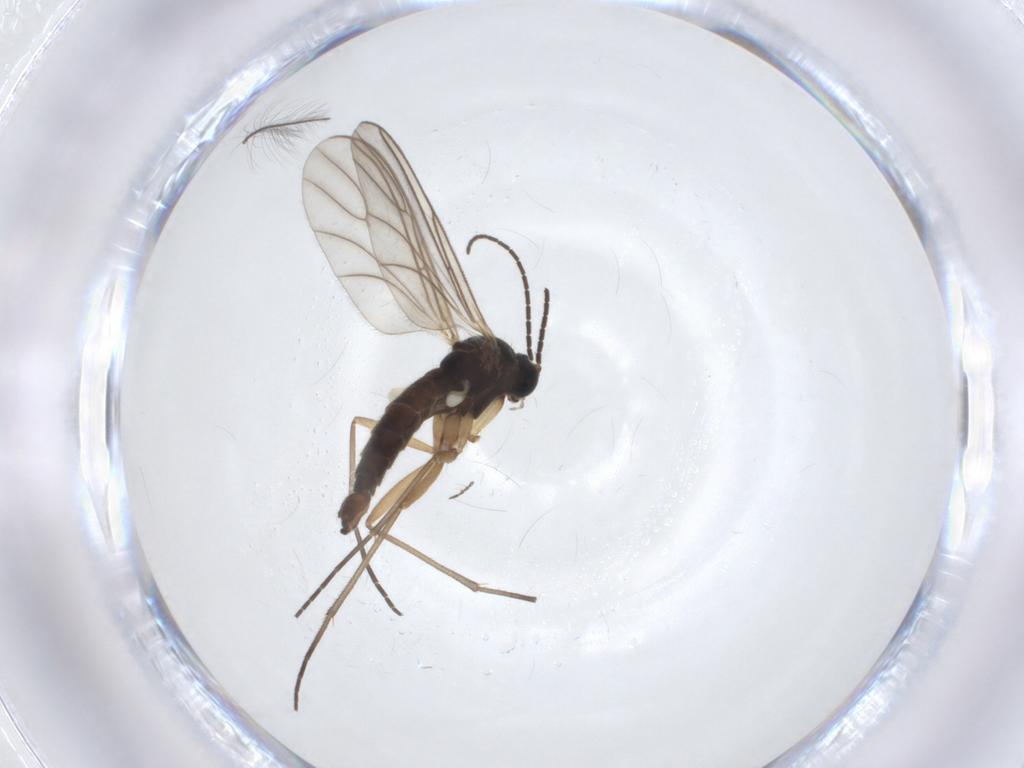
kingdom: Animalia
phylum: Arthropoda
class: Insecta
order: Diptera
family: Sciaridae
